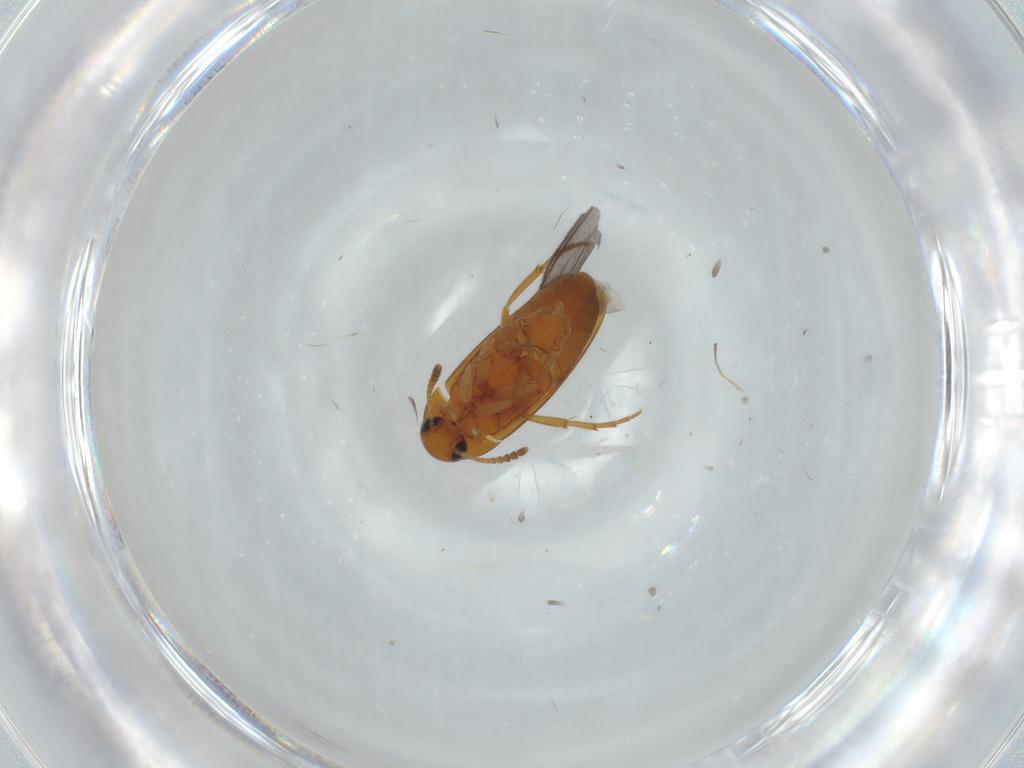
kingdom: Animalia
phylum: Arthropoda
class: Insecta
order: Coleoptera
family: Scraptiidae
